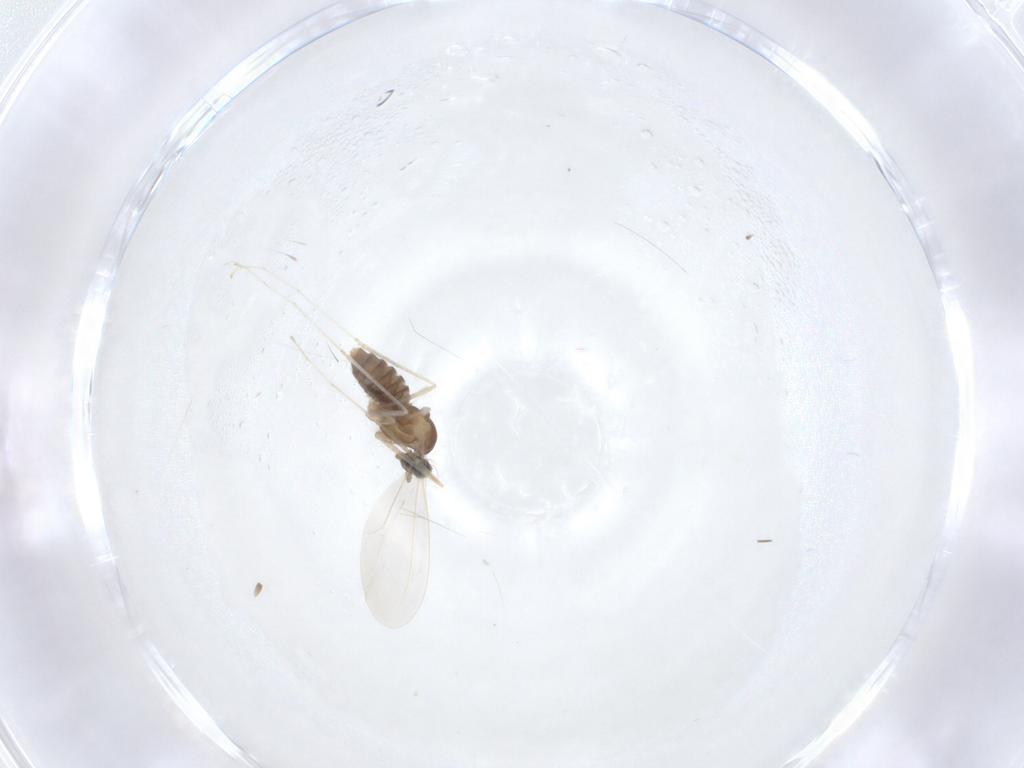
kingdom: Animalia
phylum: Arthropoda
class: Insecta
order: Diptera
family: Cecidomyiidae
